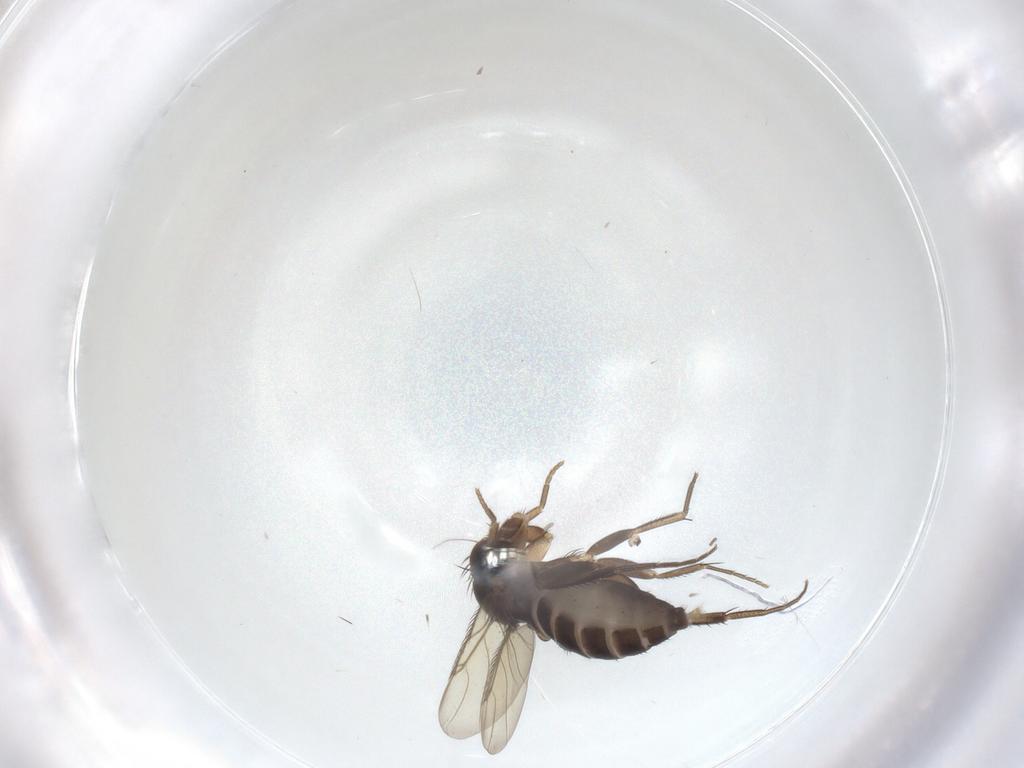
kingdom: Animalia
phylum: Arthropoda
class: Insecta
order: Diptera
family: Phoridae
